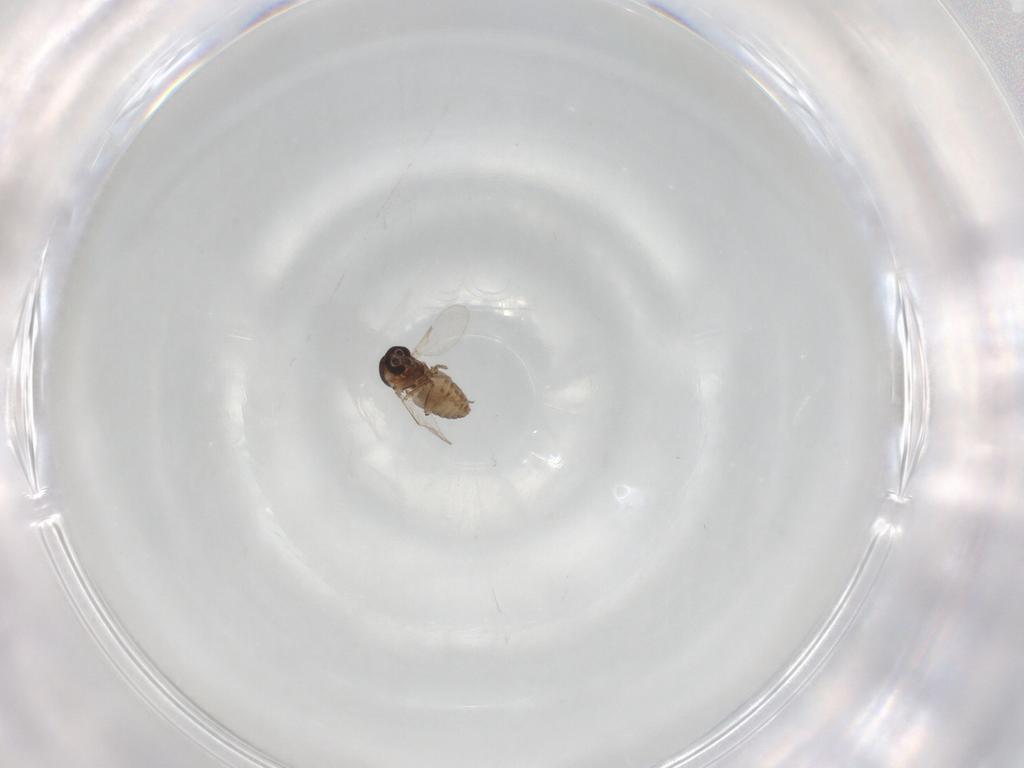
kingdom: Animalia
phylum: Arthropoda
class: Insecta
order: Diptera
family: Ceratopogonidae
